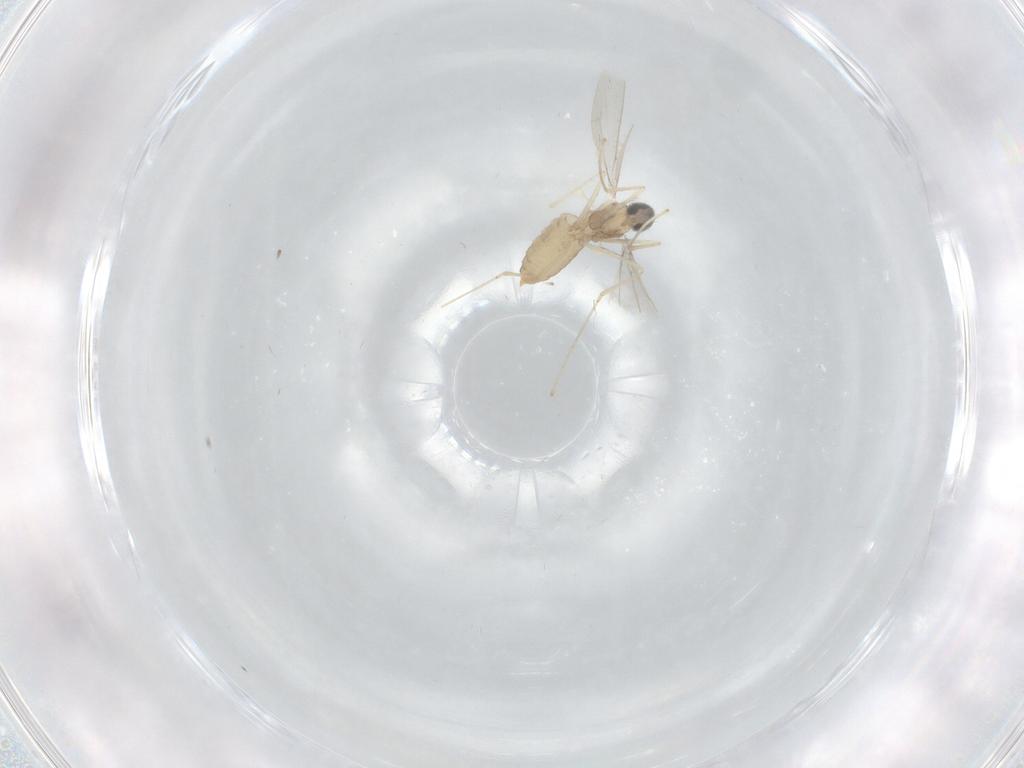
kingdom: Animalia
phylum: Arthropoda
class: Insecta
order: Diptera
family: Cecidomyiidae
